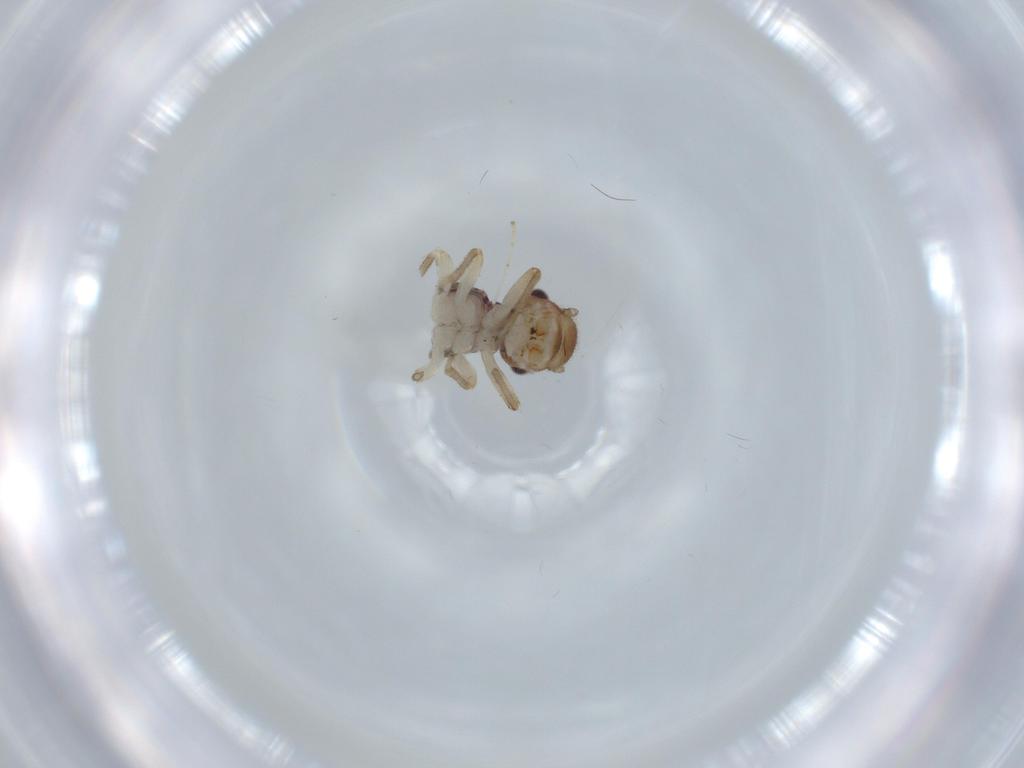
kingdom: Animalia
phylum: Arthropoda
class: Insecta
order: Psocodea
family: Amphipsocidae
